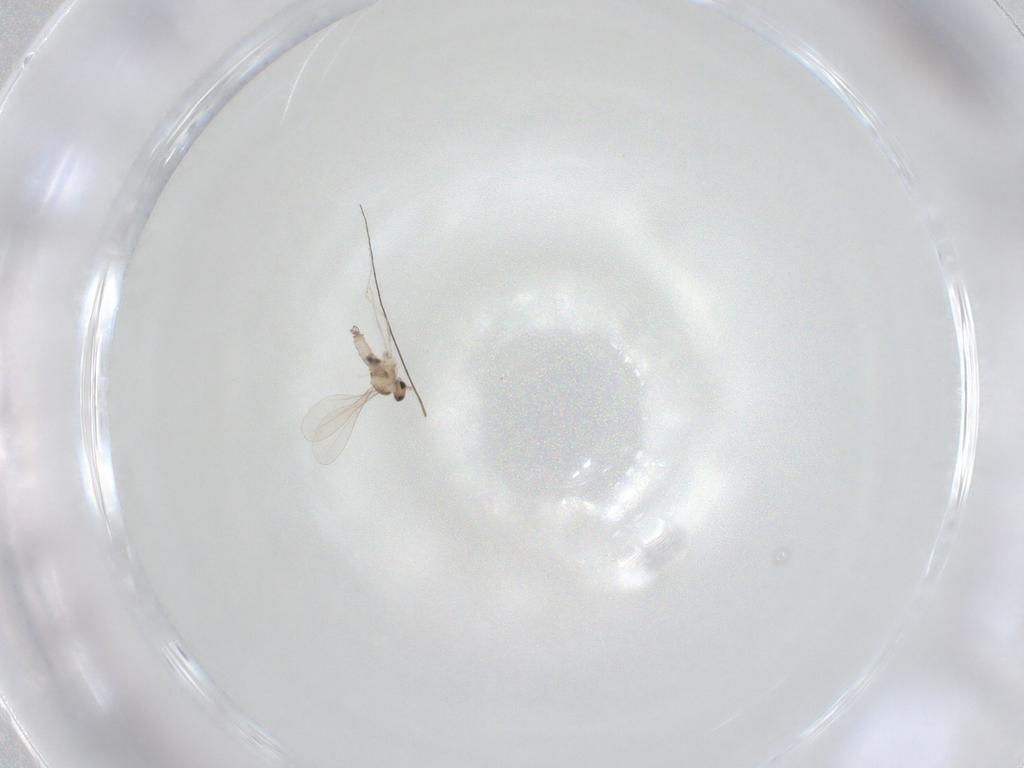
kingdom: Animalia
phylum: Arthropoda
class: Insecta
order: Diptera
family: Cecidomyiidae
